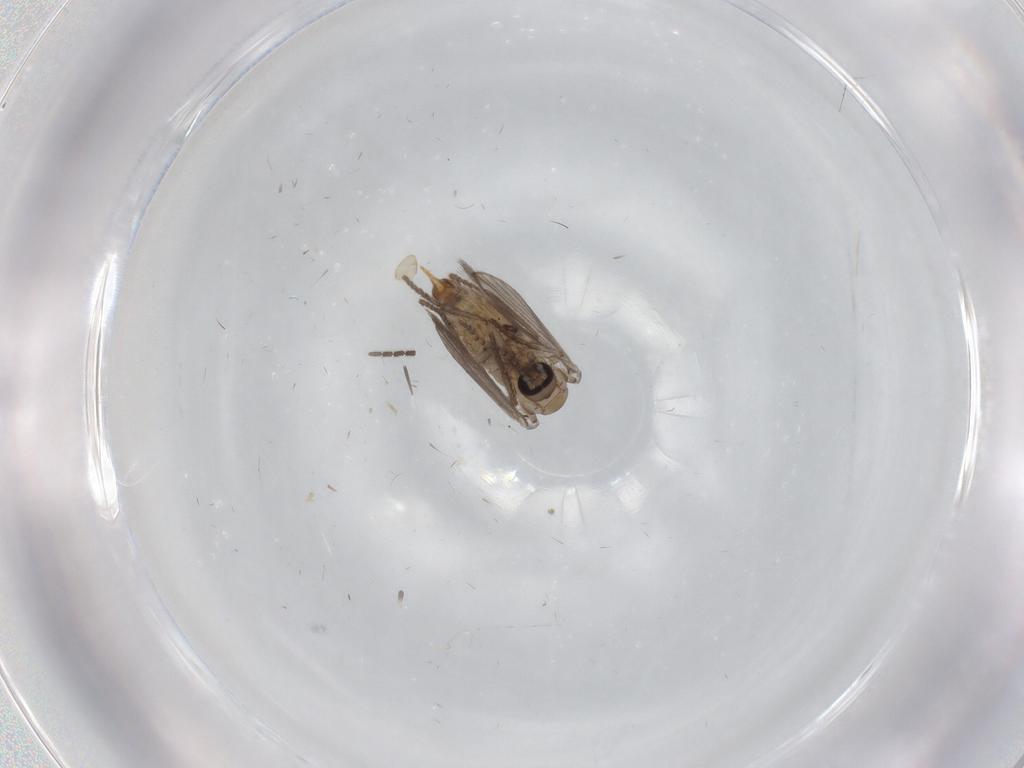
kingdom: Animalia
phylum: Arthropoda
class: Insecta
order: Diptera
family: Psychodidae
